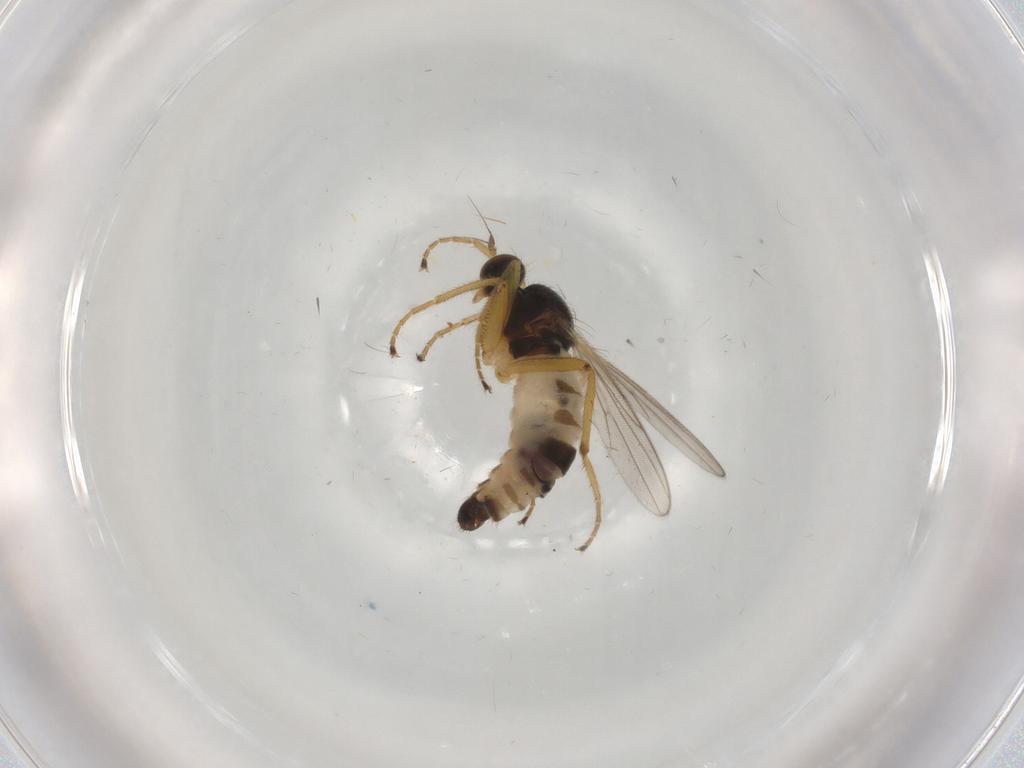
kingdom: Animalia
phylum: Arthropoda
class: Insecta
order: Diptera
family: Hybotidae
